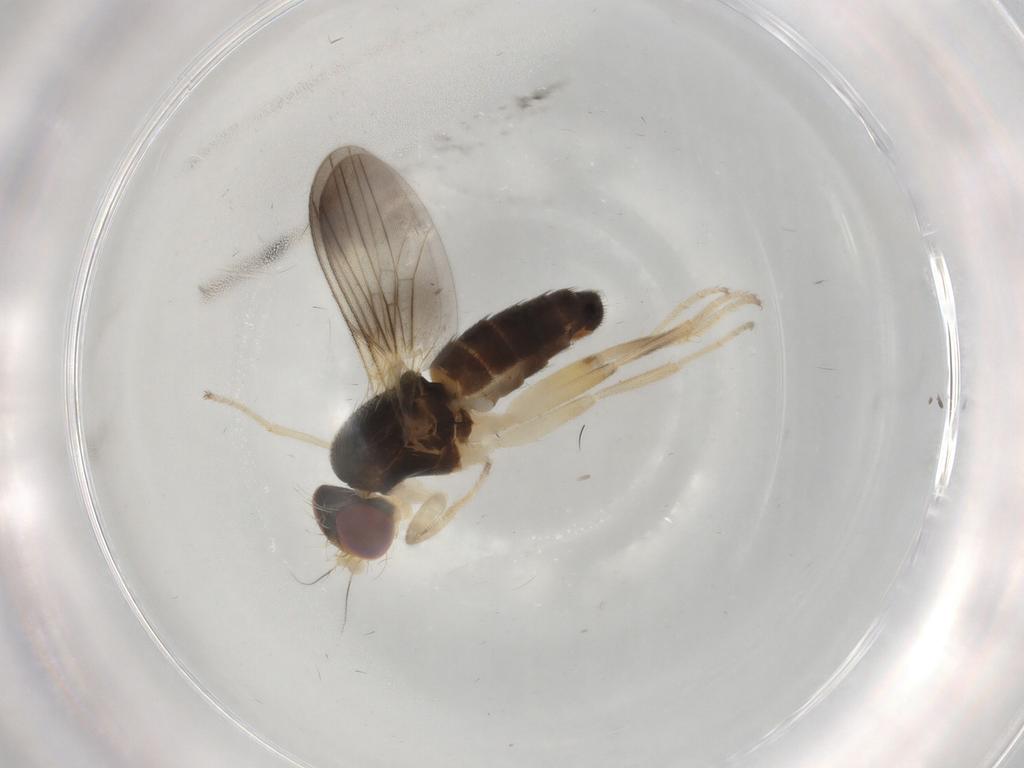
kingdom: Animalia
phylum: Arthropoda
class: Insecta
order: Diptera
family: Clusiidae
